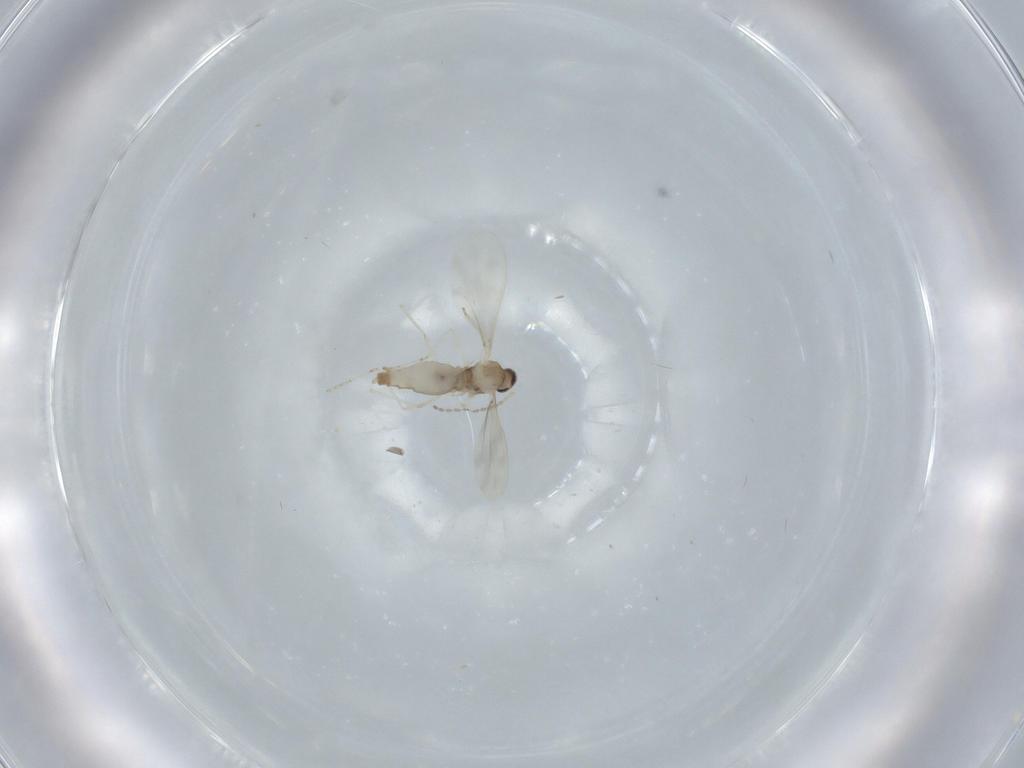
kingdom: Animalia
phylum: Arthropoda
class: Insecta
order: Diptera
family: Cecidomyiidae
